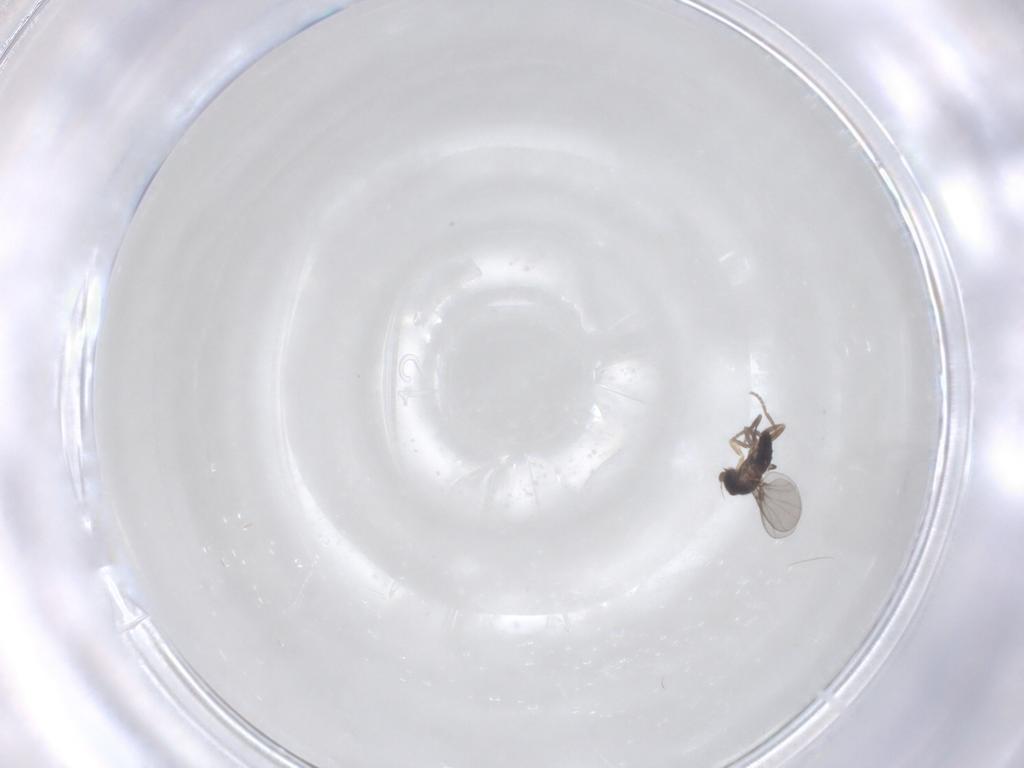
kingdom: Animalia
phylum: Arthropoda
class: Insecta
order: Diptera
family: Phoridae
